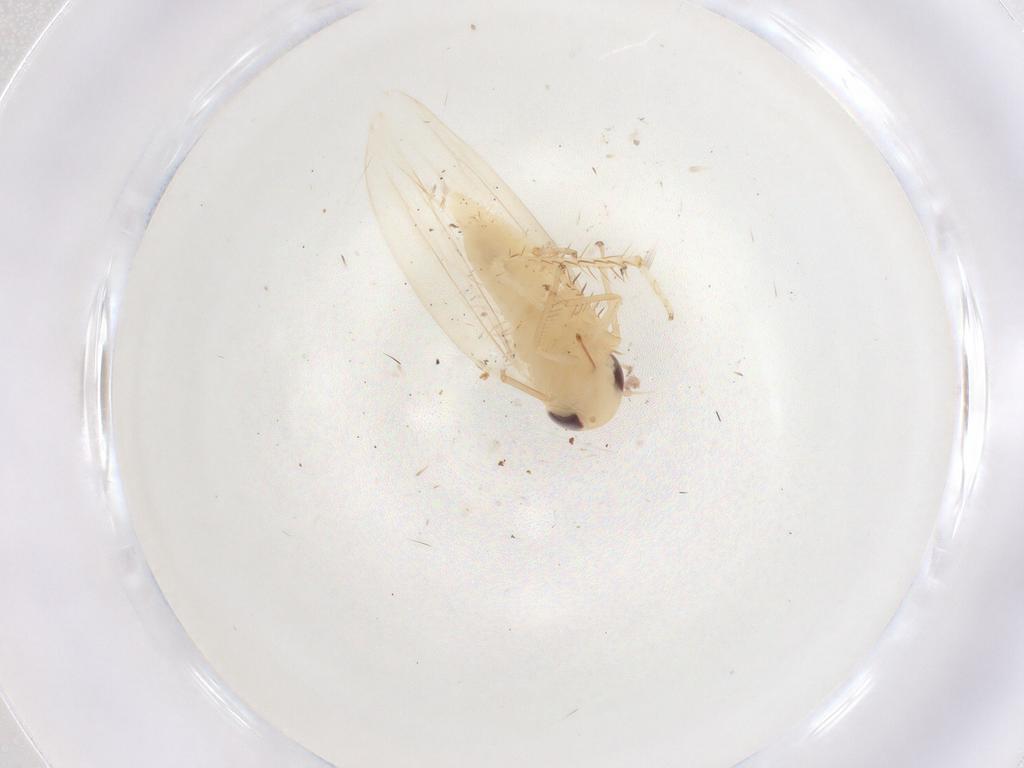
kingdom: Animalia
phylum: Arthropoda
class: Insecta
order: Hemiptera
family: Cicadellidae
